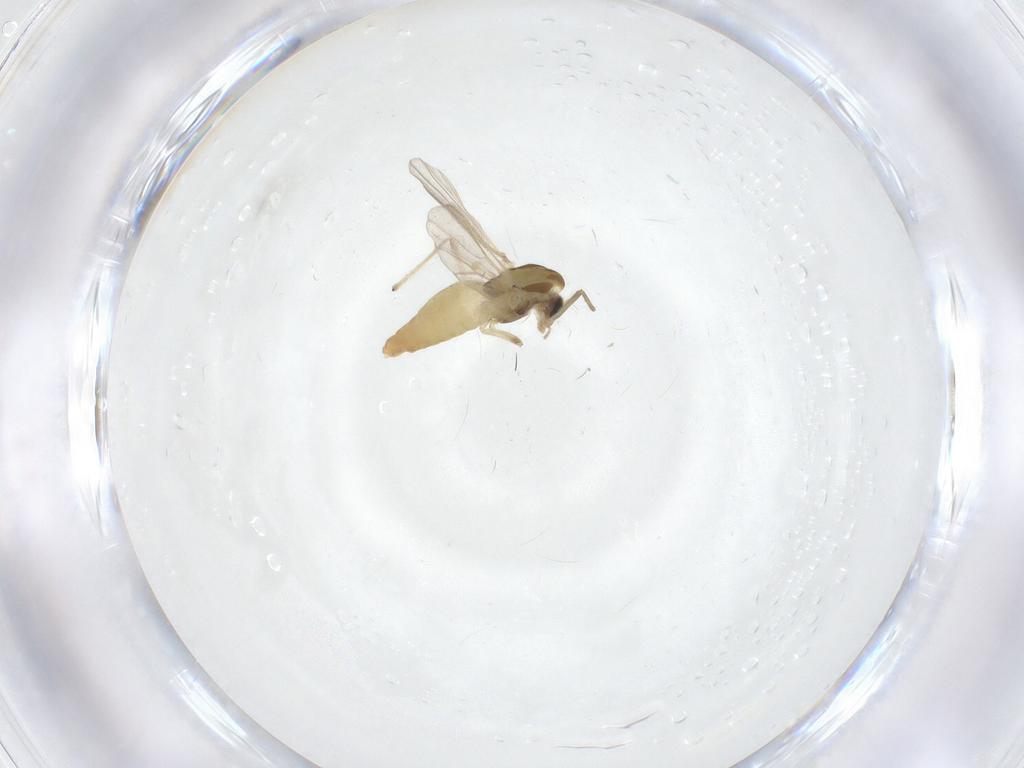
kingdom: Animalia
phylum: Arthropoda
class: Insecta
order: Diptera
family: Chironomidae
